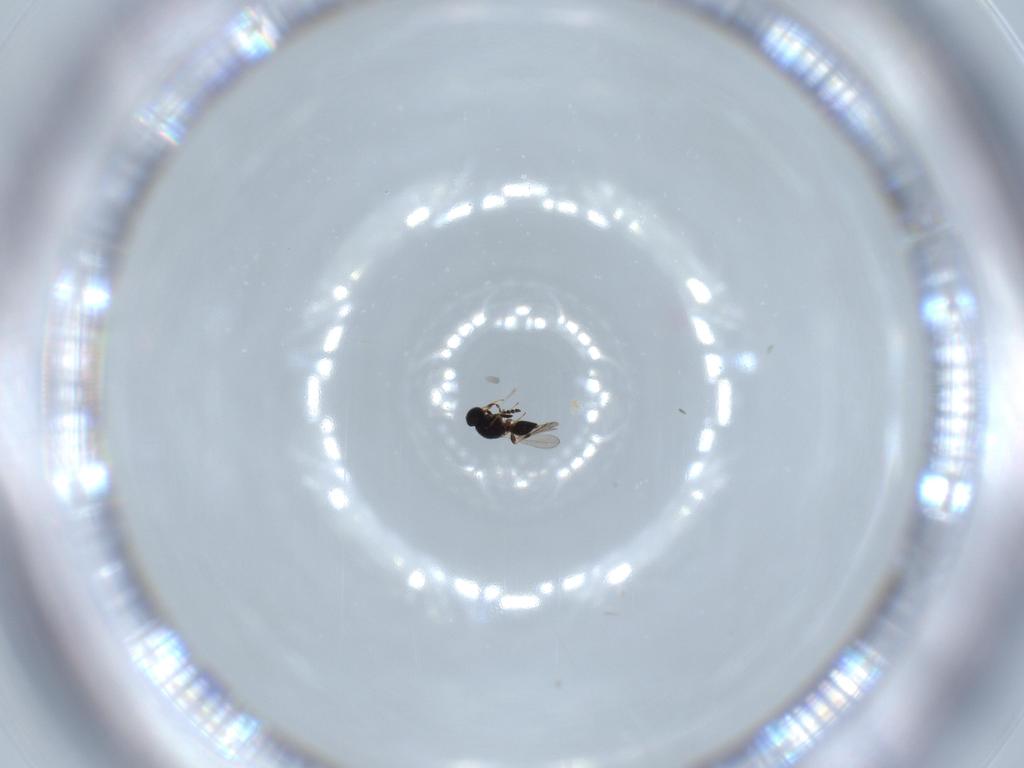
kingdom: Animalia
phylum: Arthropoda
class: Insecta
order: Hymenoptera
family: Platygastridae
